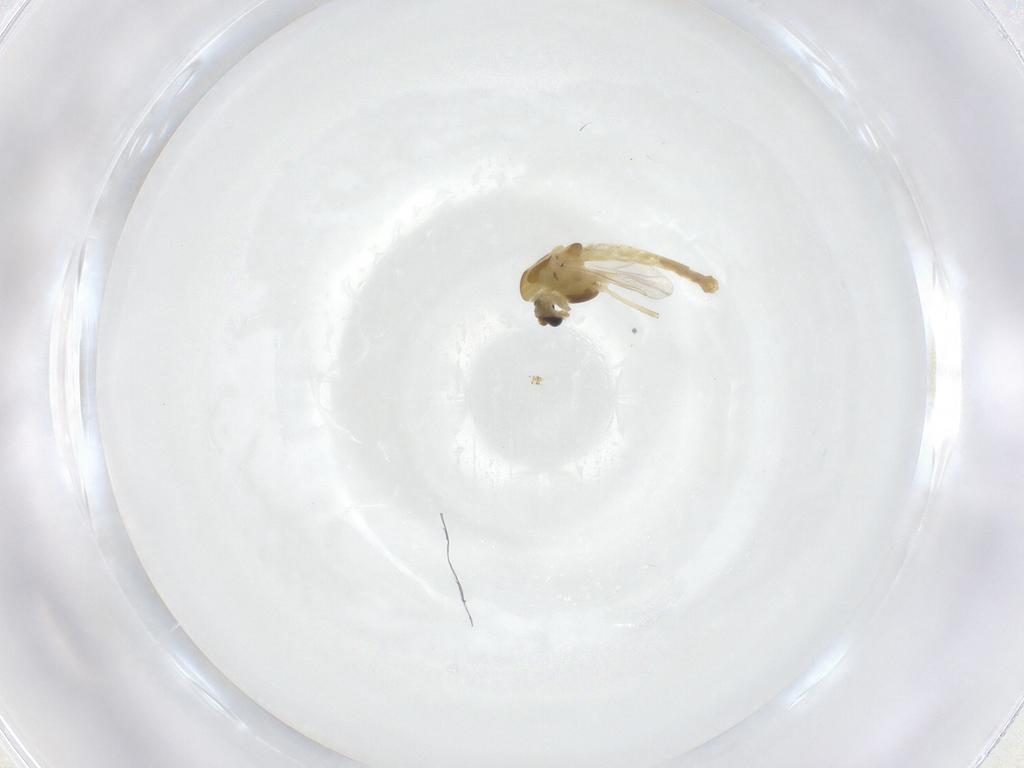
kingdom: Animalia
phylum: Arthropoda
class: Insecta
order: Diptera
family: Chironomidae
